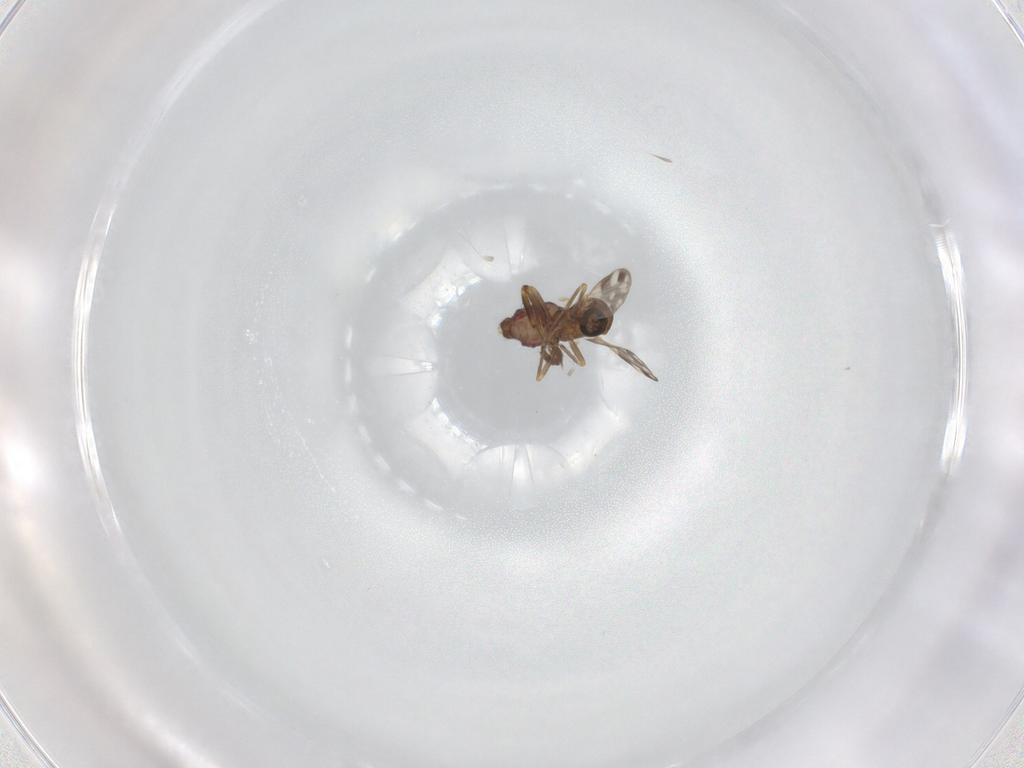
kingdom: Animalia
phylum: Arthropoda
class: Insecta
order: Diptera
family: Ceratopogonidae
